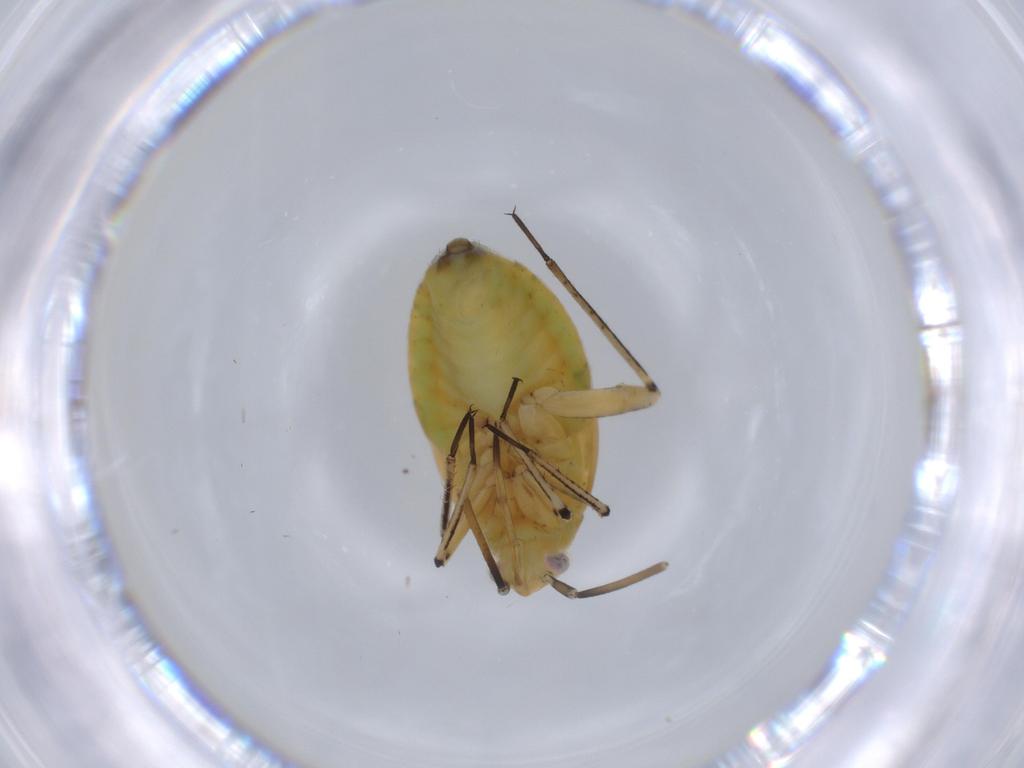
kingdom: Animalia
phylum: Arthropoda
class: Insecta
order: Hemiptera
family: Miridae
